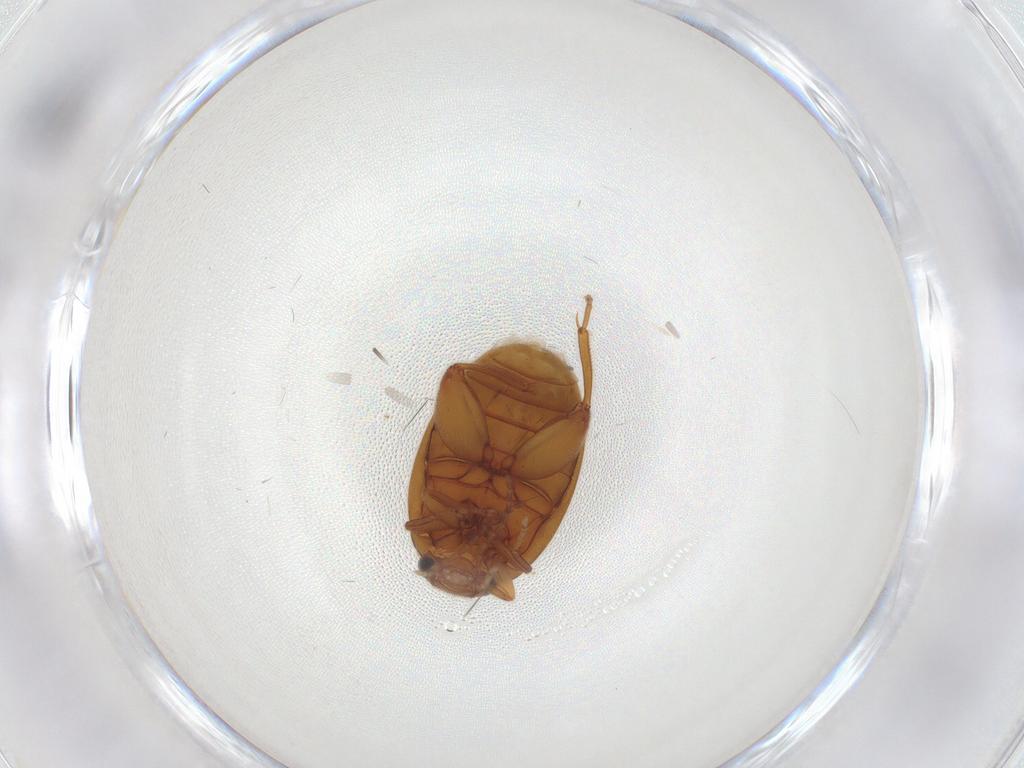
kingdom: Animalia
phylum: Arthropoda
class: Insecta
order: Coleoptera
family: Scirtidae
